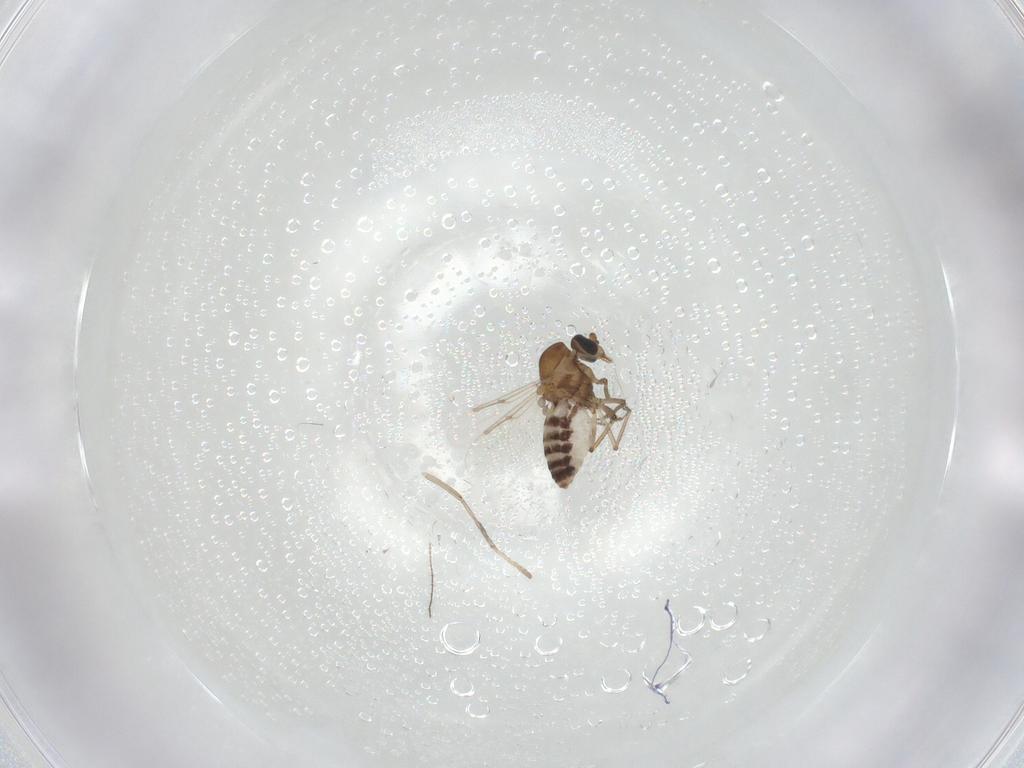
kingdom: Animalia
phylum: Arthropoda
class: Insecta
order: Diptera
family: Psychodidae
